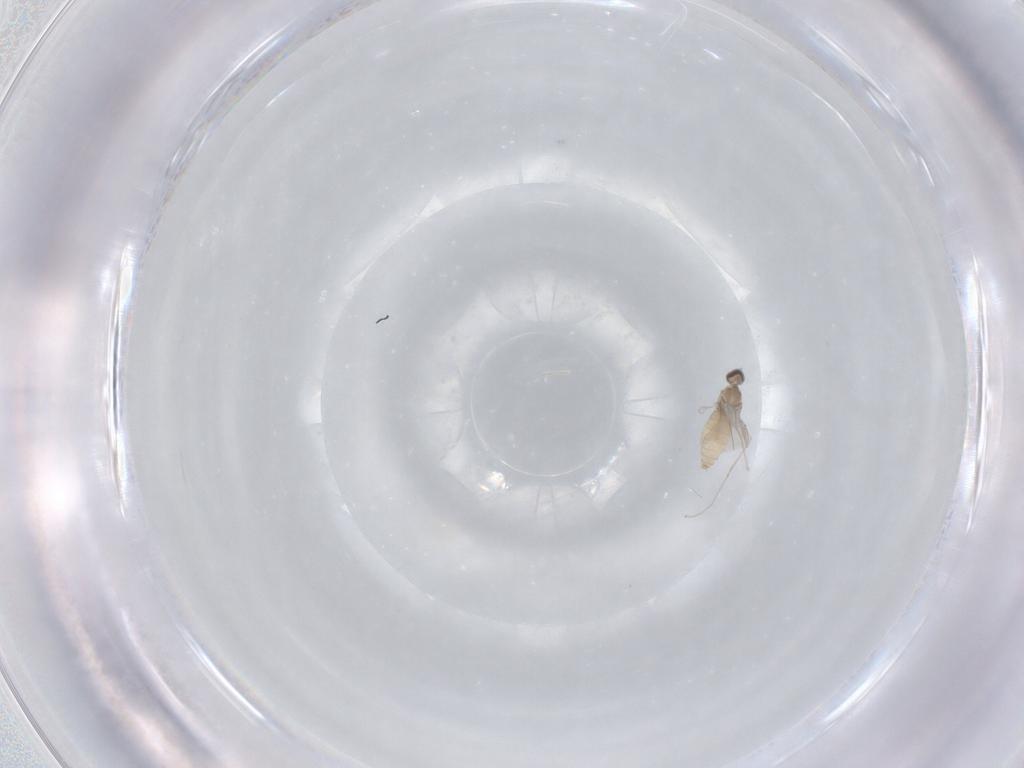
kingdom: Animalia
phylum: Arthropoda
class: Insecta
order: Diptera
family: Cecidomyiidae
